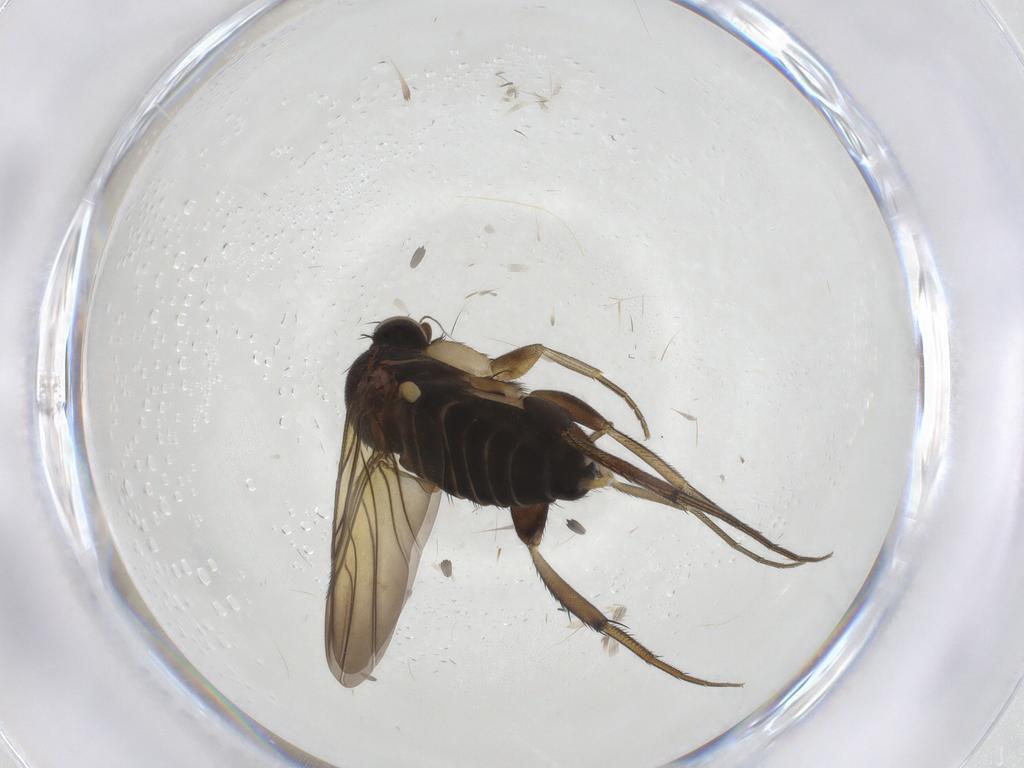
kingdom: Animalia
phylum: Arthropoda
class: Insecta
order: Diptera
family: Phoridae
